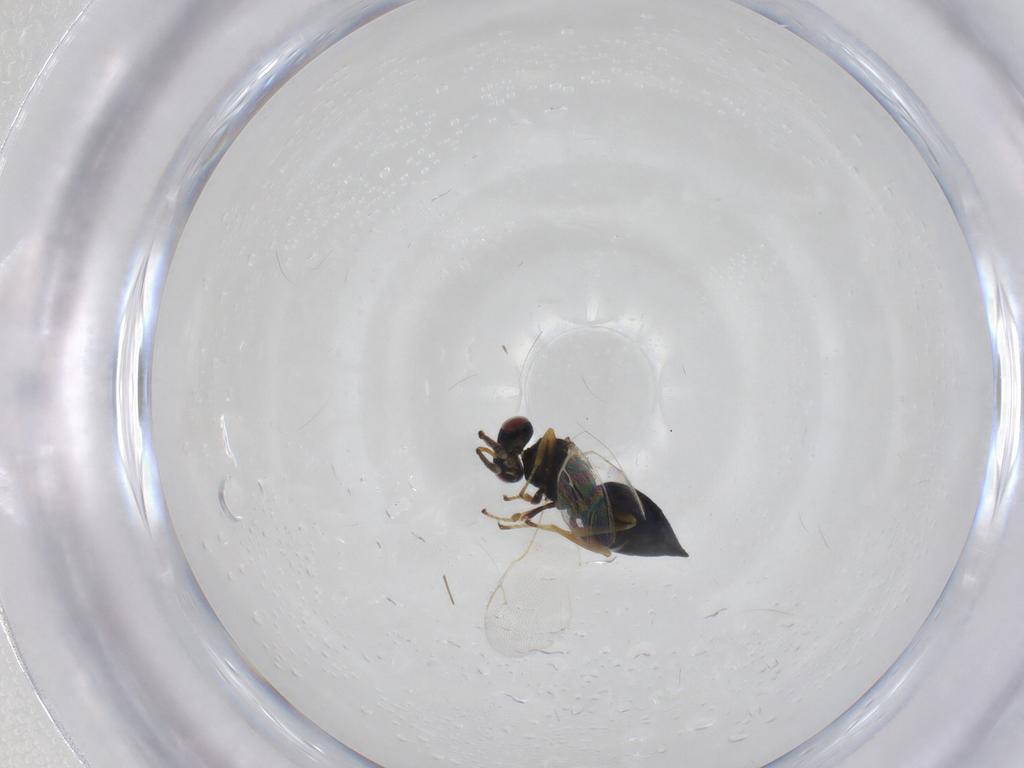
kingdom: Animalia
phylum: Arthropoda
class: Insecta
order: Hymenoptera
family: Pteromalidae
